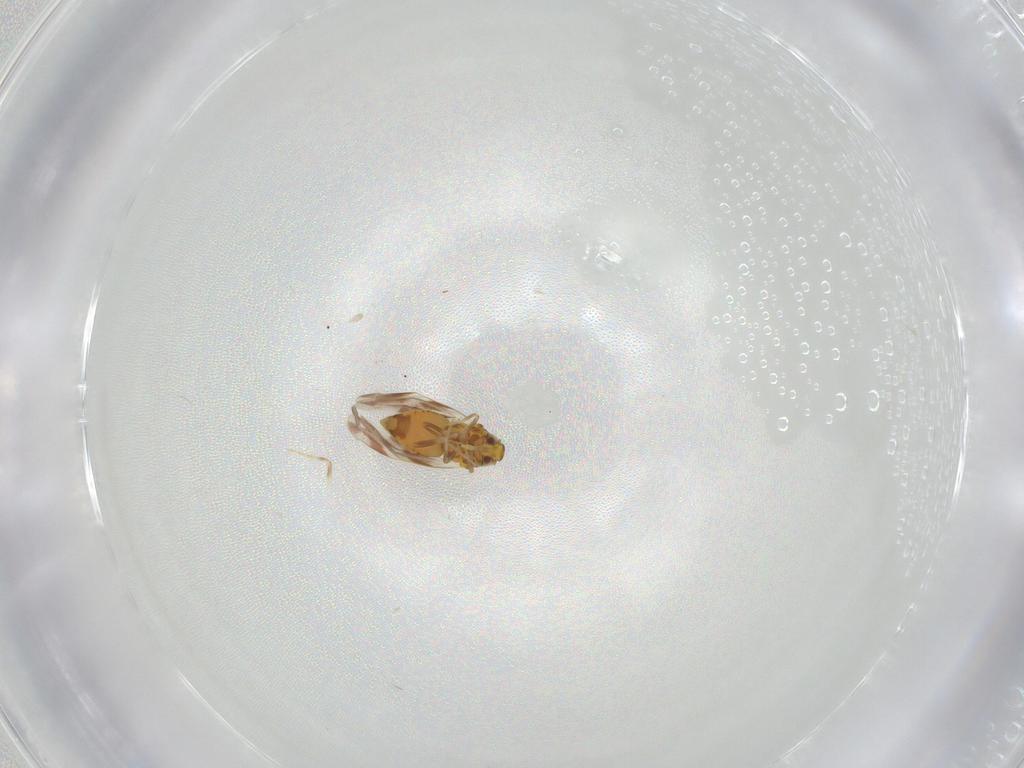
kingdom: Animalia
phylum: Arthropoda
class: Insecta
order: Hemiptera
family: Aleyrodidae
